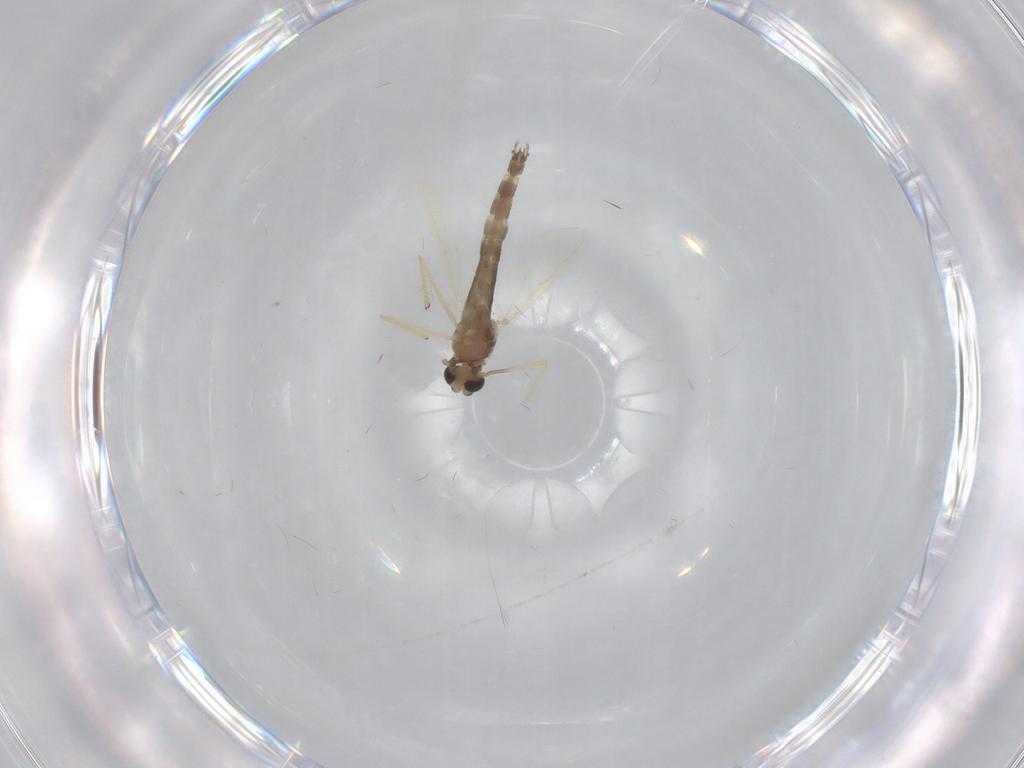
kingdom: Animalia
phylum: Arthropoda
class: Insecta
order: Diptera
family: Chironomidae
